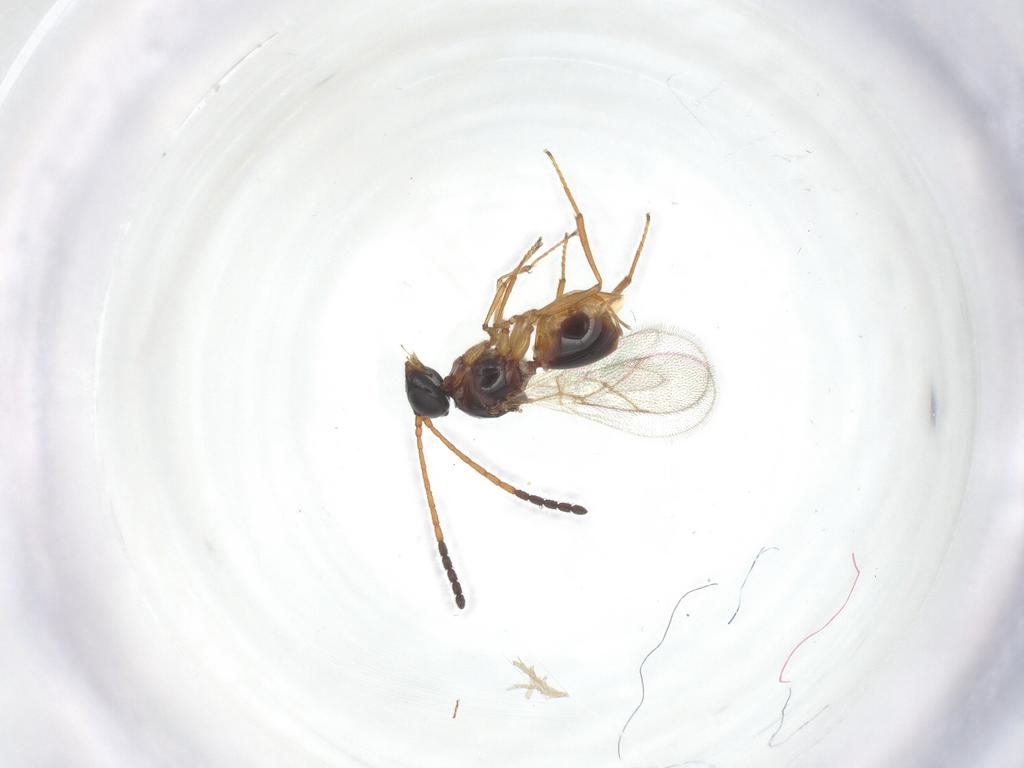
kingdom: Animalia
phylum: Arthropoda
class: Insecta
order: Hymenoptera
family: Figitidae
